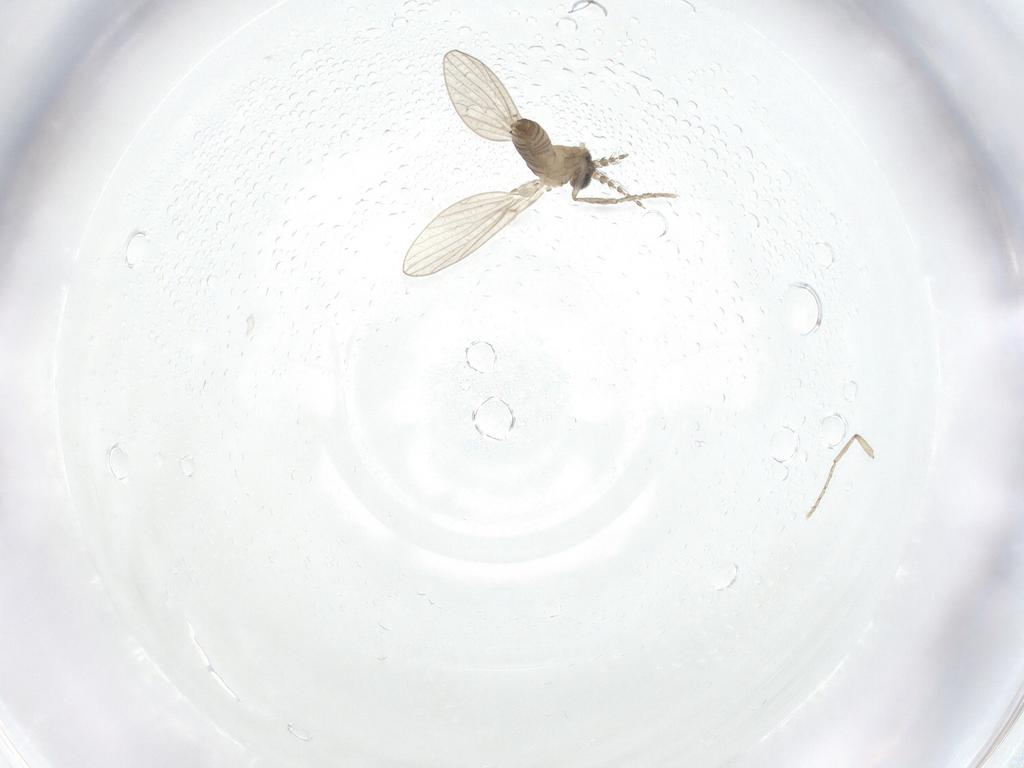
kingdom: Animalia
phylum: Arthropoda
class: Insecta
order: Diptera
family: Psychodidae
